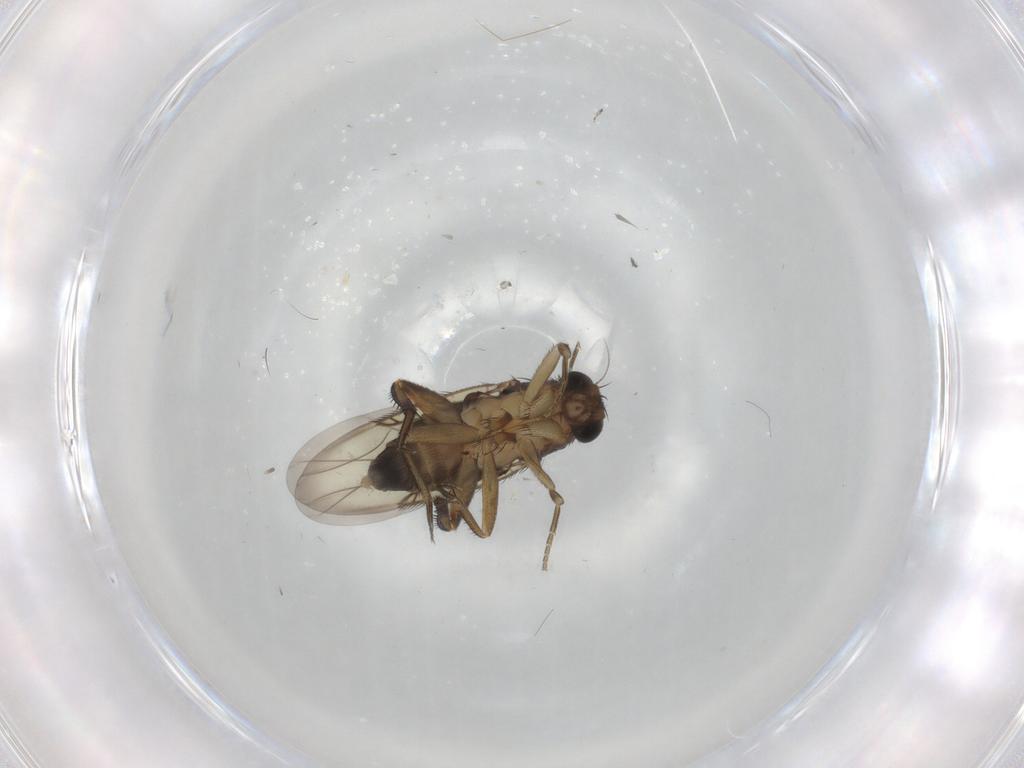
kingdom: Animalia
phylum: Arthropoda
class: Insecta
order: Diptera
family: Phoridae
